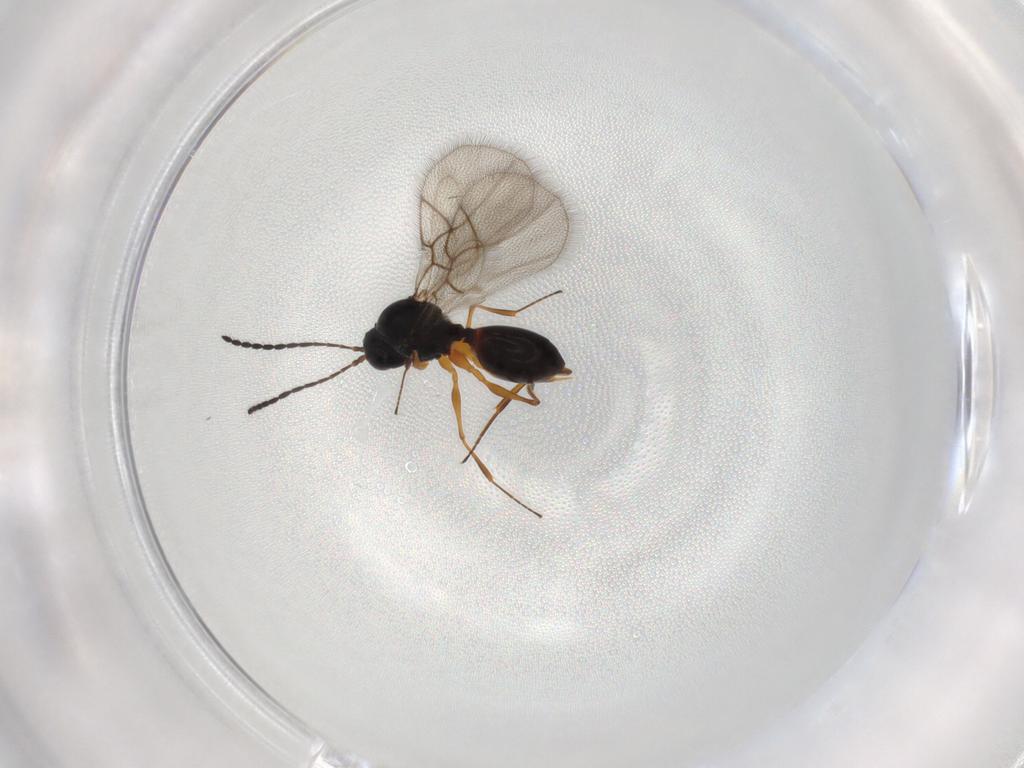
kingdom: Animalia
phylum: Arthropoda
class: Insecta
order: Hymenoptera
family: Figitidae
